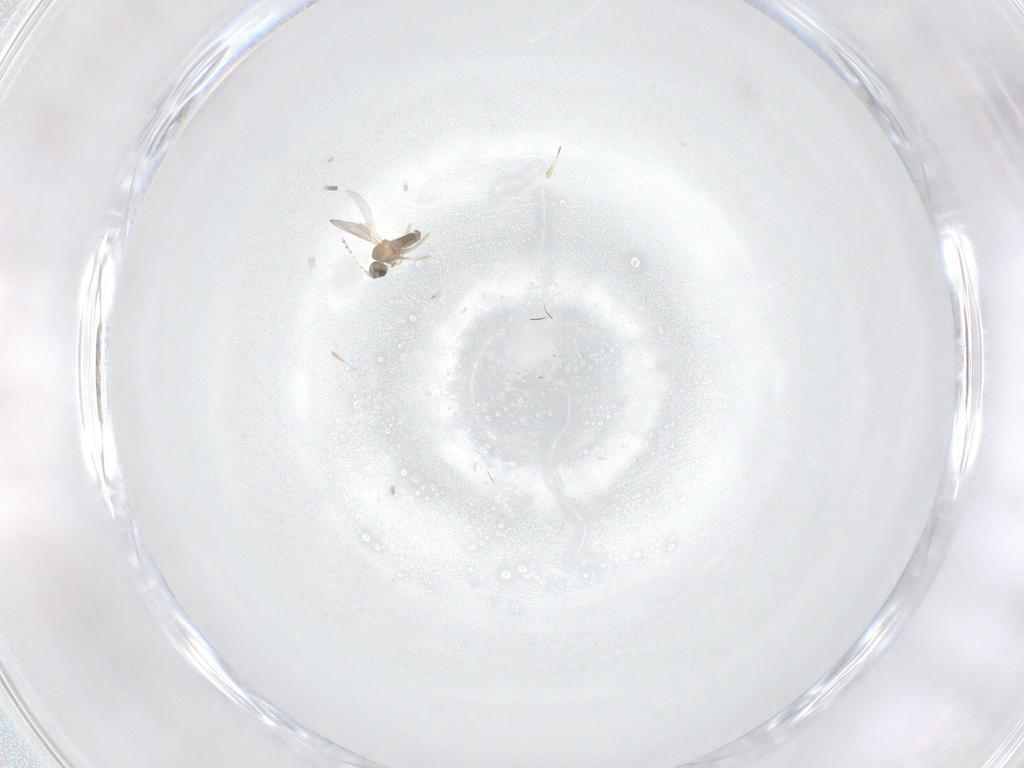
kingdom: Animalia
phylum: Arthropoda
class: Insecta
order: Diptera
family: Cecidomyiidae
